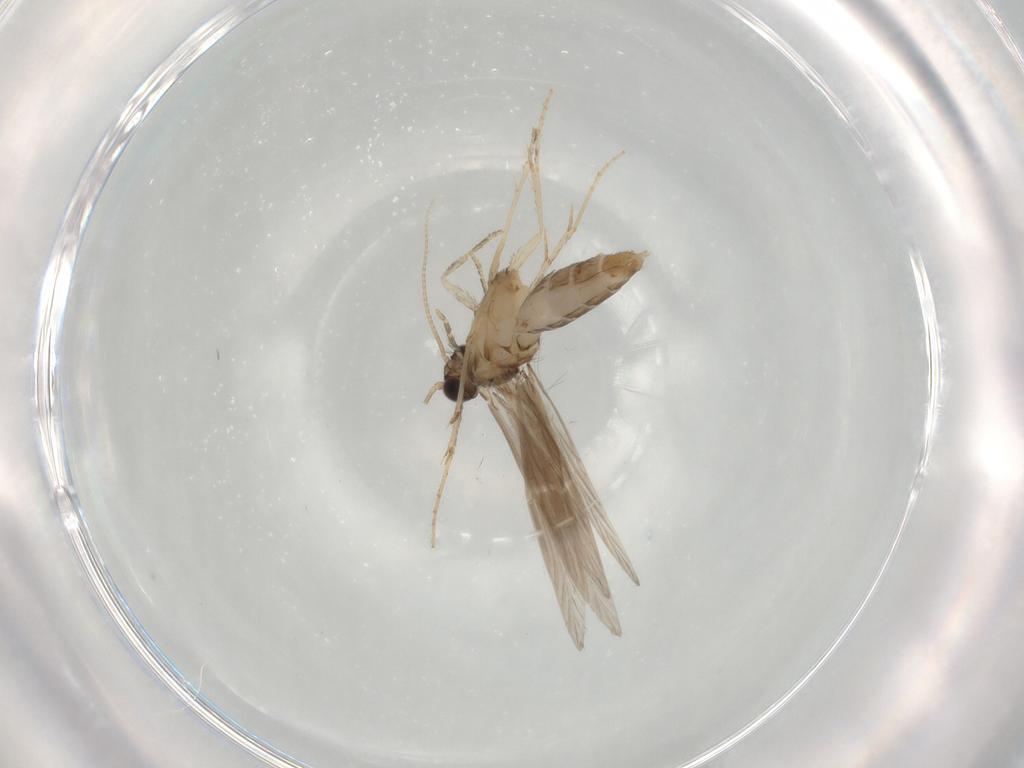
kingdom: Animalia
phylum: Arthropoda
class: Insecta
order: Trichoptera
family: Hydroptilidae
